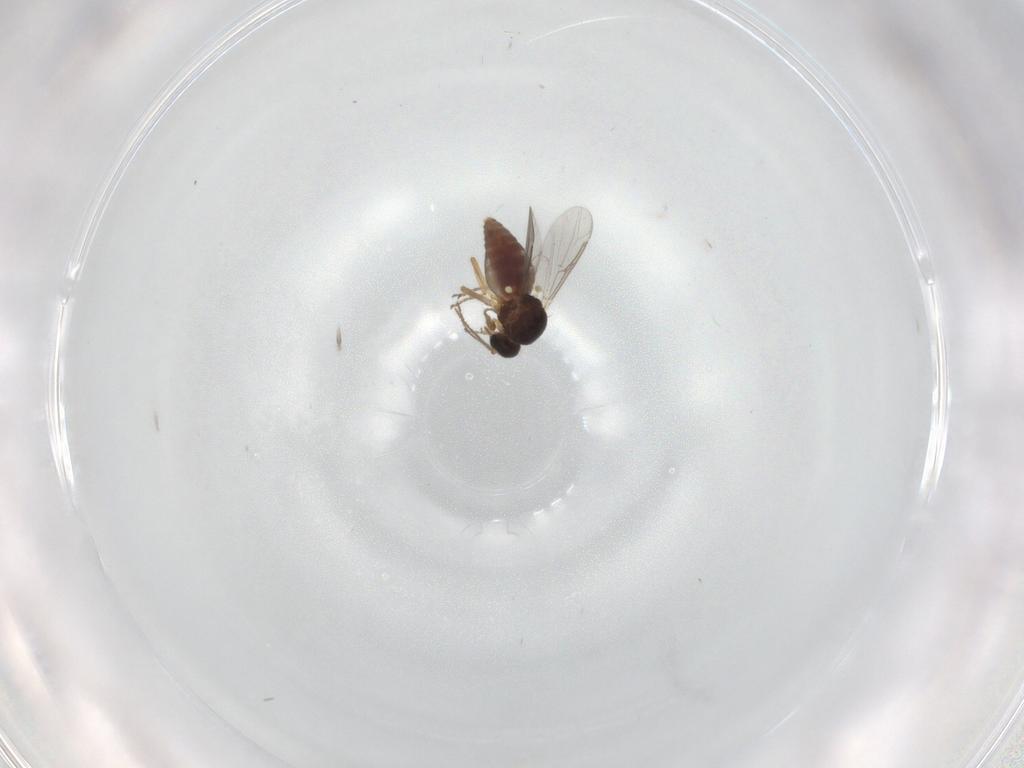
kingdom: Animalia
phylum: Arthropoda
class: Insecta
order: Diptera
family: Ceratopogonidae
